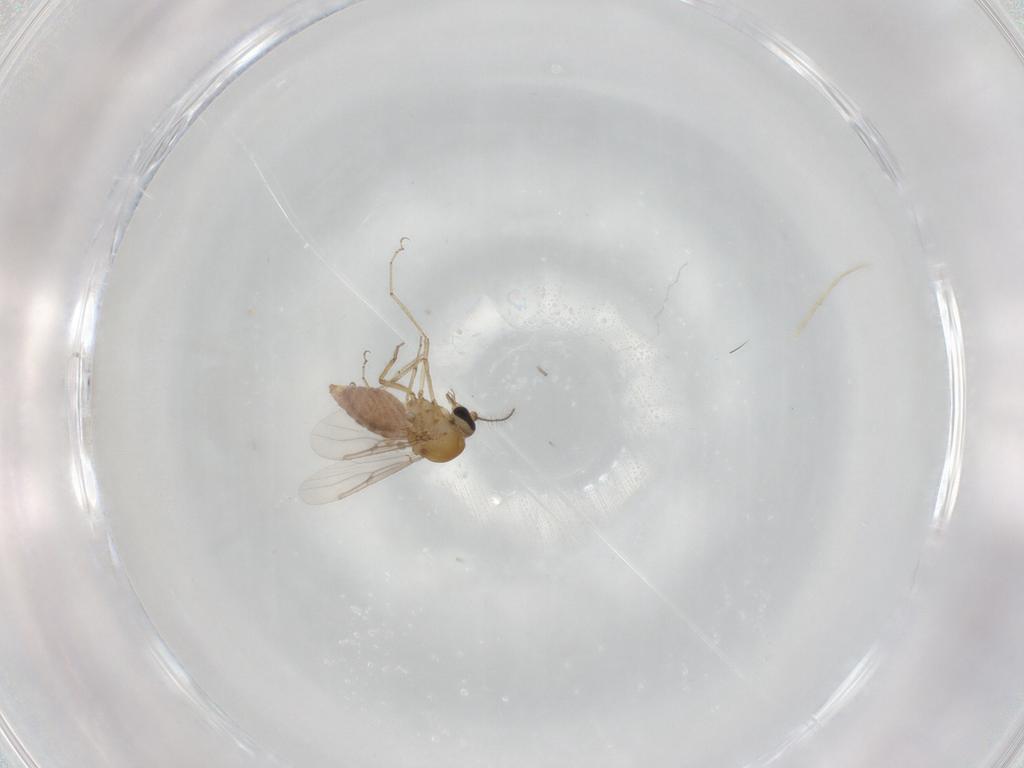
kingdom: Animalia
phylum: Arthropoda
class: Insecta
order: Diptera
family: Ceratopogonidae
